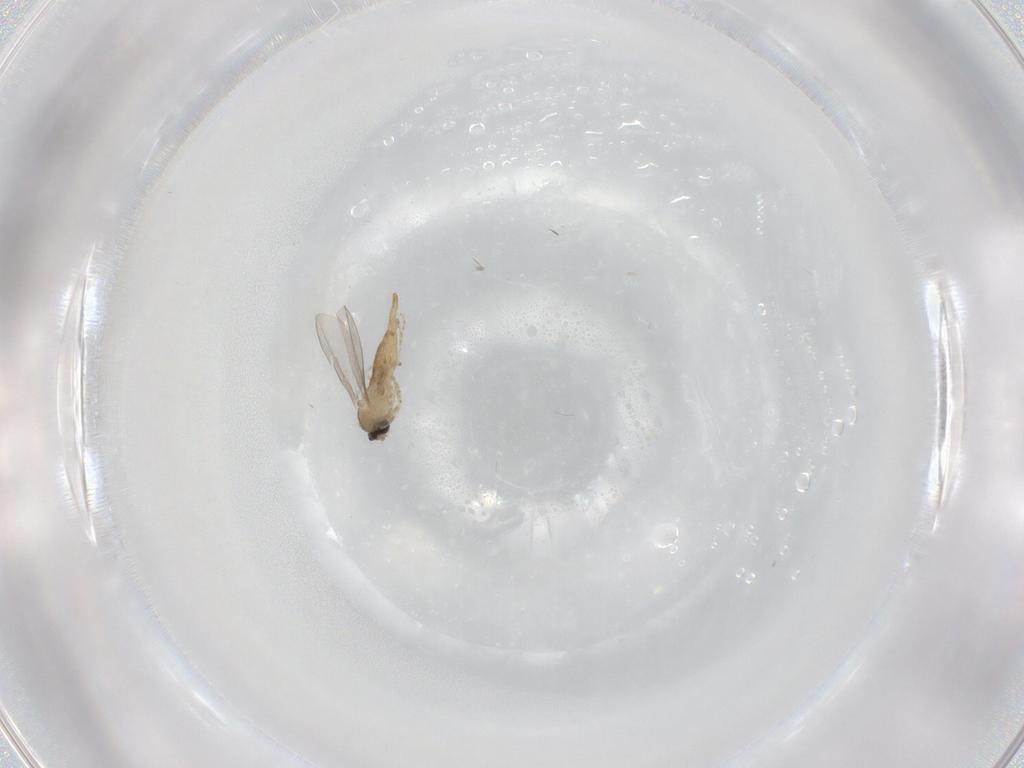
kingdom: Animalia
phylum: Arthropoda
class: Insecta
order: Diptera
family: Cecidomyiidae
